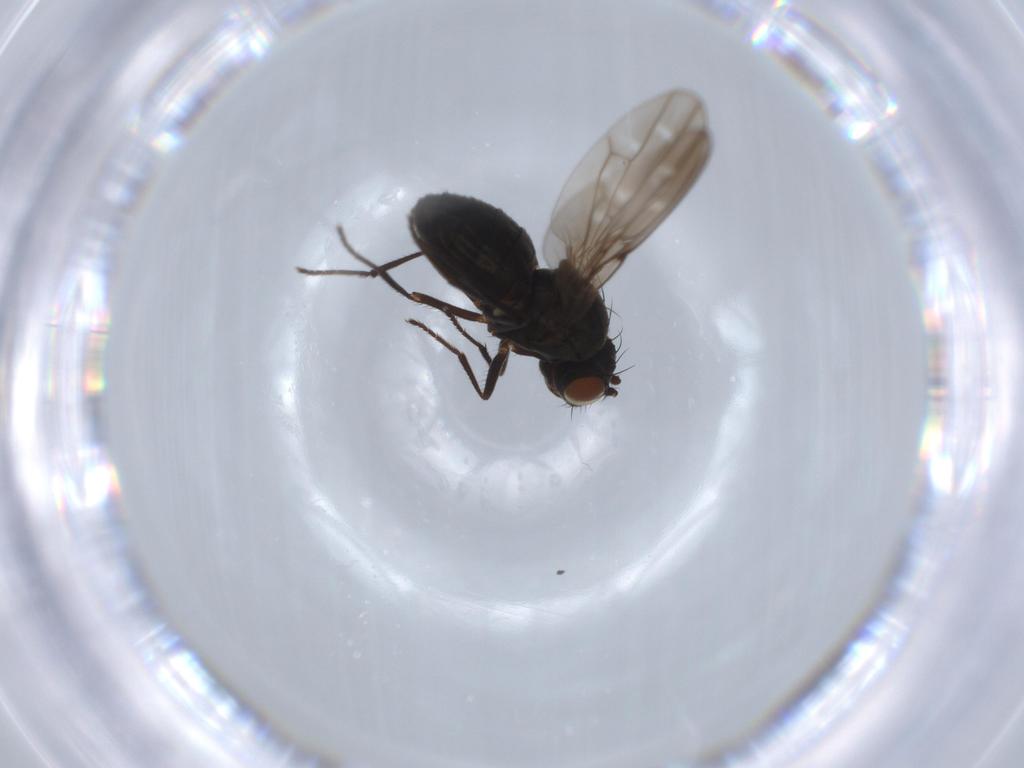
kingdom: Animalia
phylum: Arthropoda
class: Insecta
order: Diptera
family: Ephydridae
